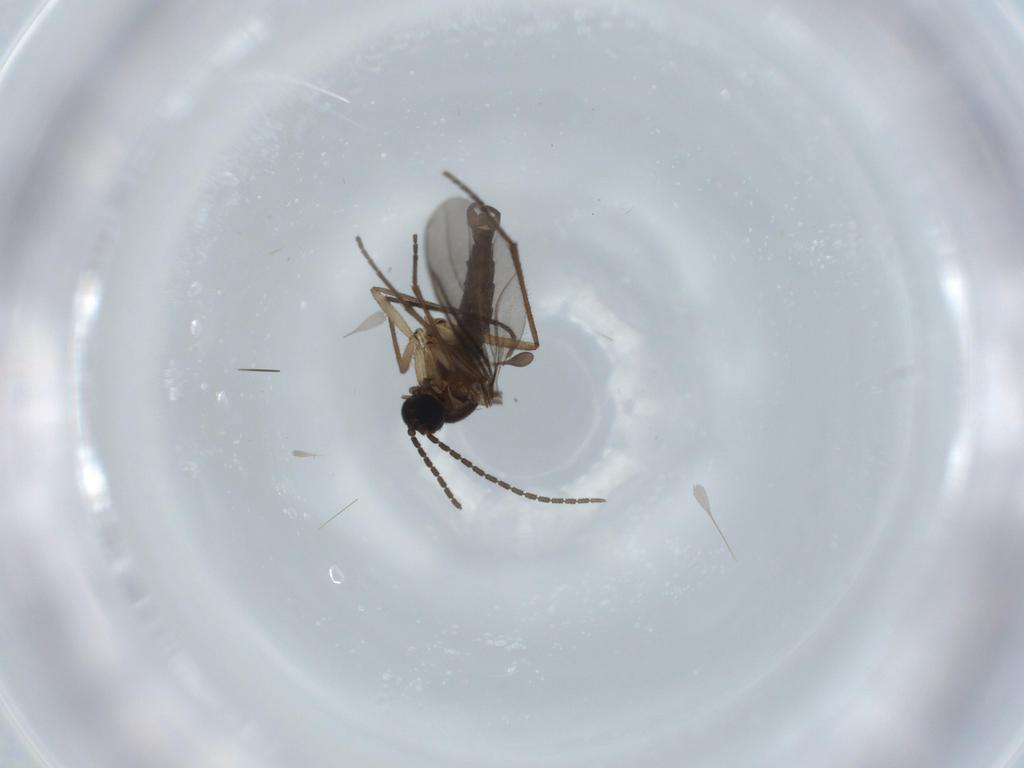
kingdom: Animalia
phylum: Arthropoda
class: Insecta
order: Diptera
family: Sciaridae
